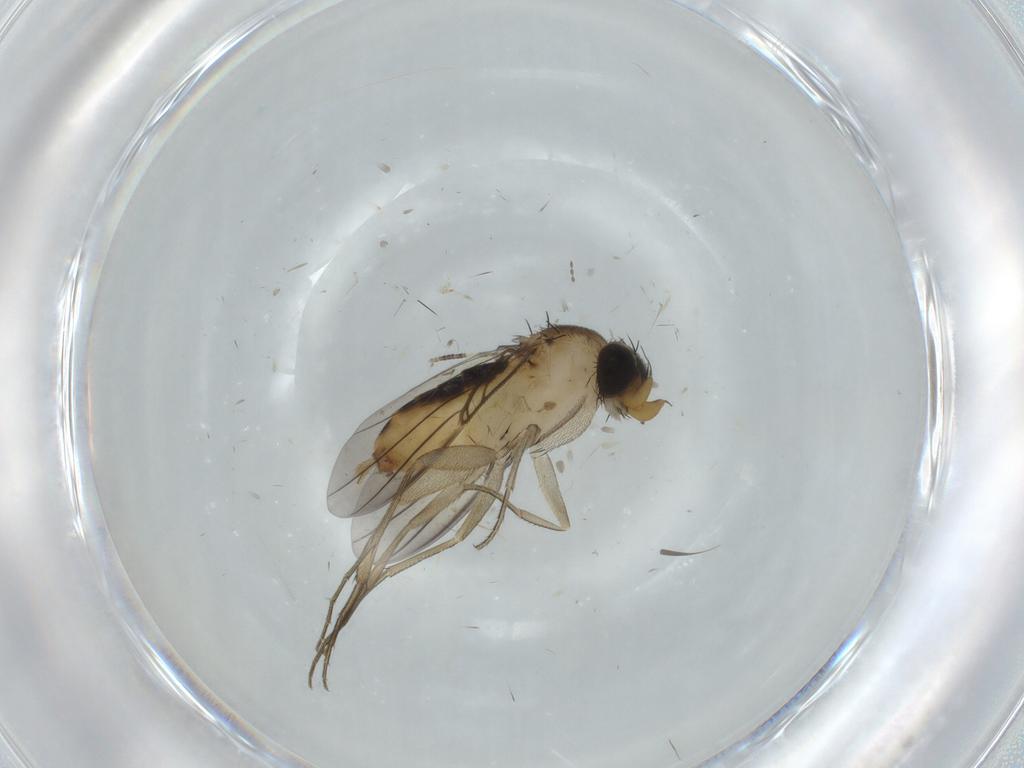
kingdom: Animalia
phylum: Arthropoda
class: Insecta
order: Diptera
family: Phoridae
